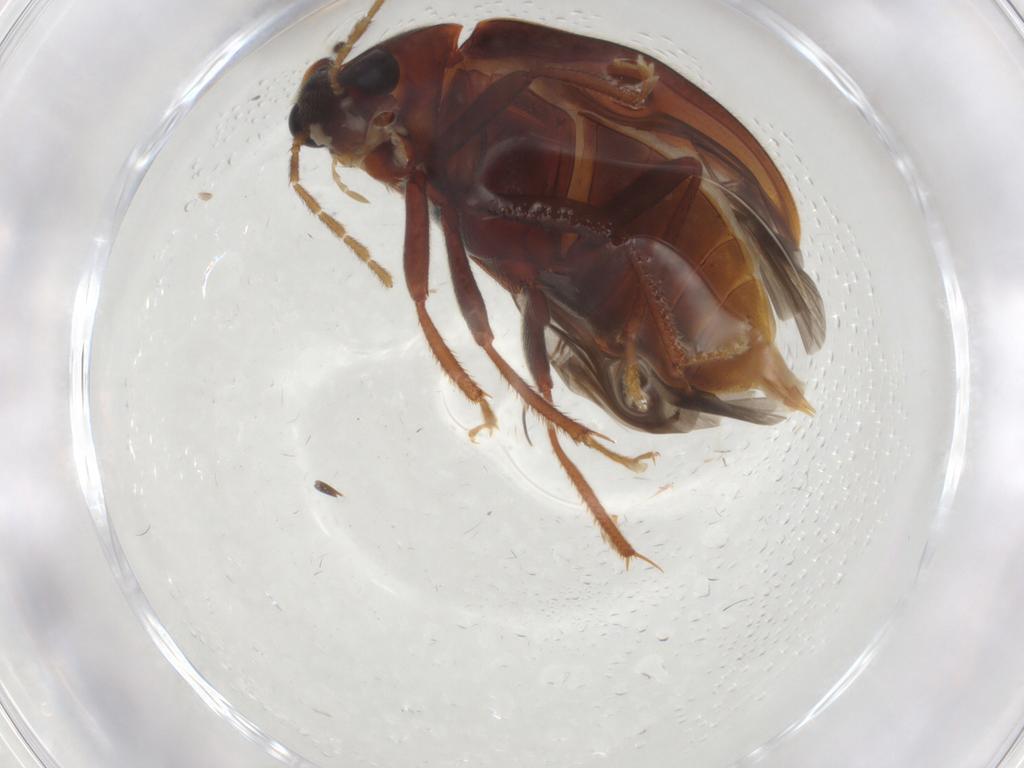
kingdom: Animalia
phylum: Arthropoda
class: Insecta
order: Coleoptera
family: Ptilodactylidae
